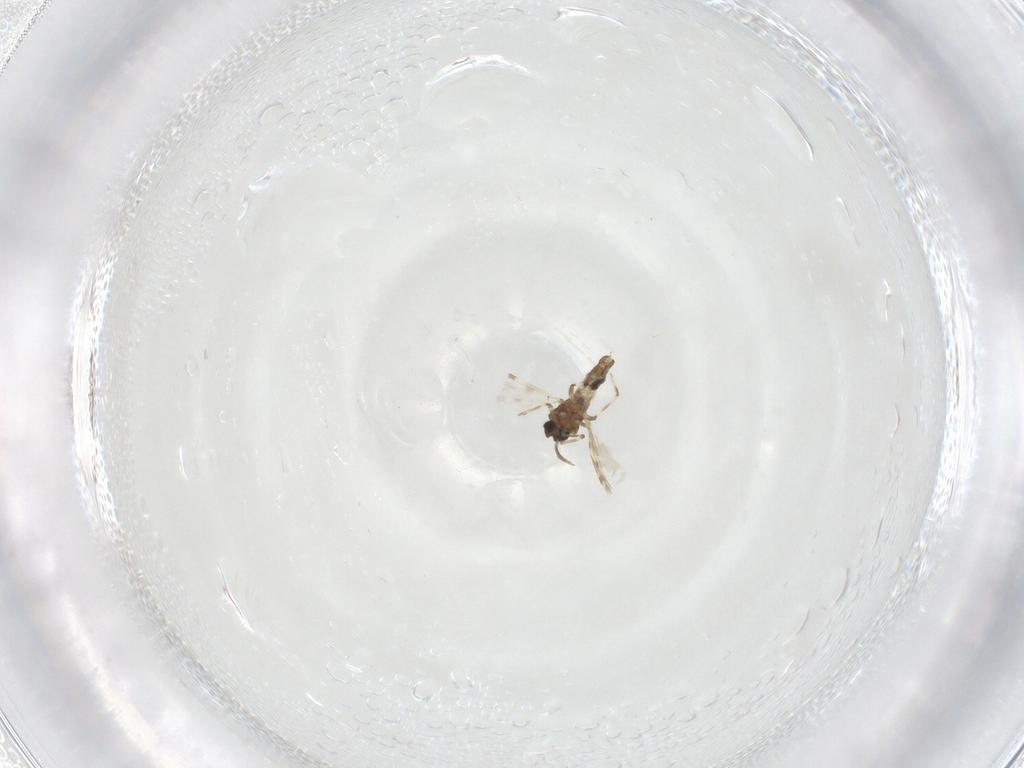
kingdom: Animalia
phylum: Arthropoda
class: Insecta
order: Diptera
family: Ceratopogonidae
